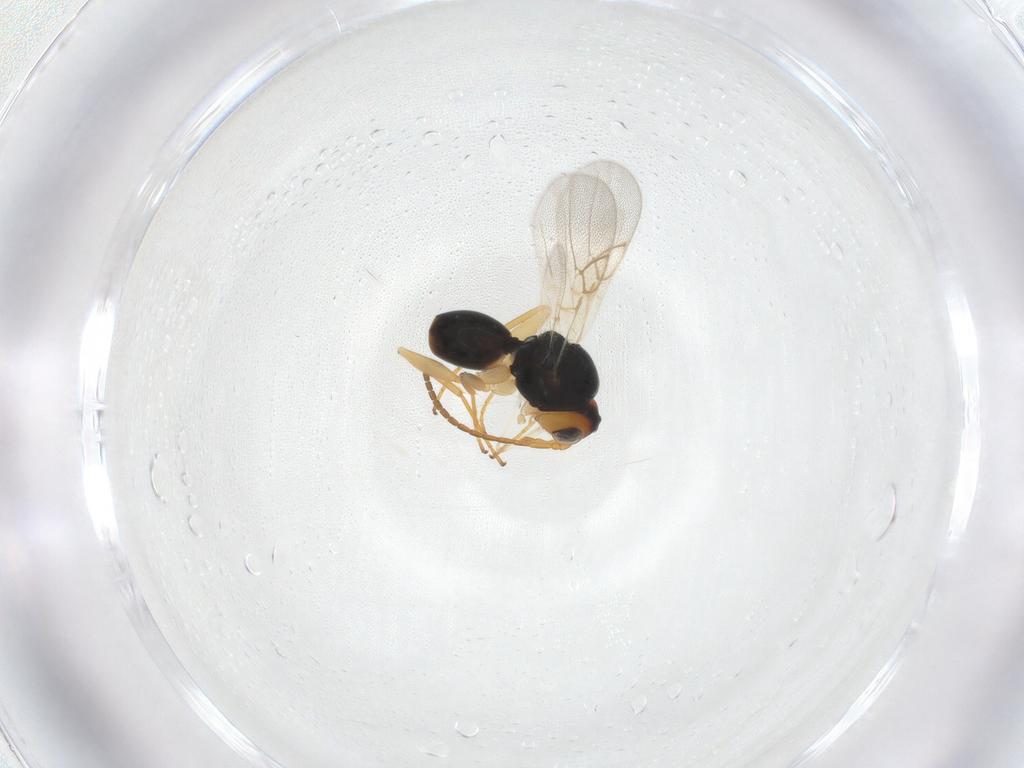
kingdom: Animalia
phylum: Arthropoda
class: Insecta
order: Hymenoptera
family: Cynipidae
